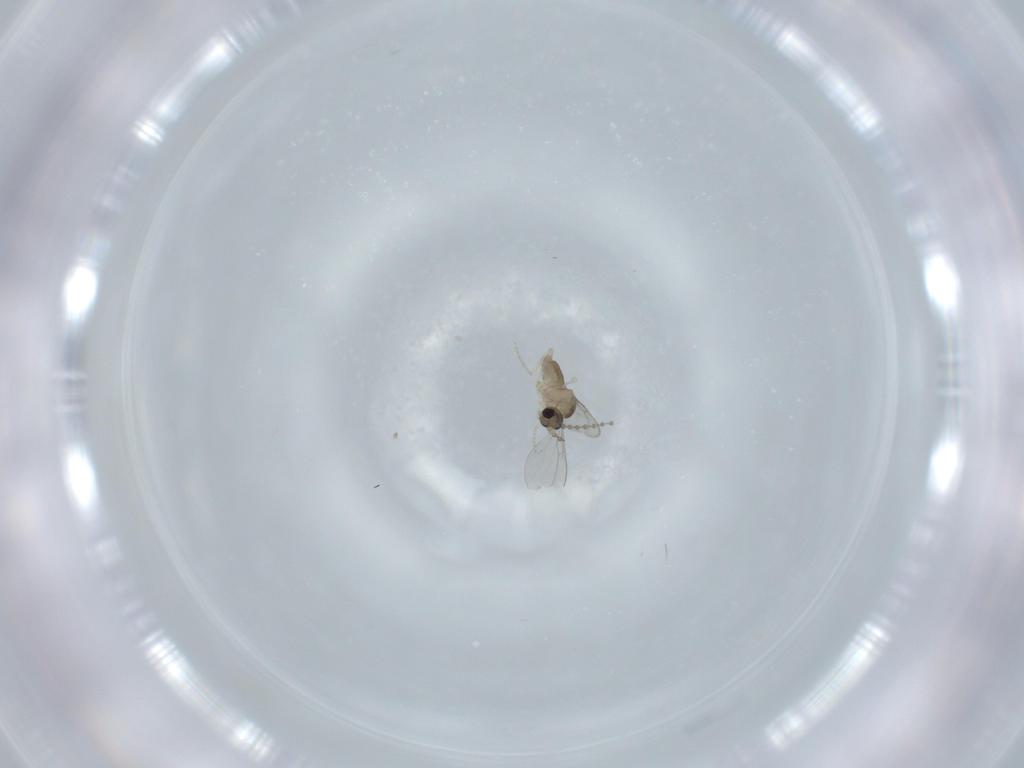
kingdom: Animalia
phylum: Arthropoda
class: Insecta
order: Diptera
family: Cecidomyiidae
